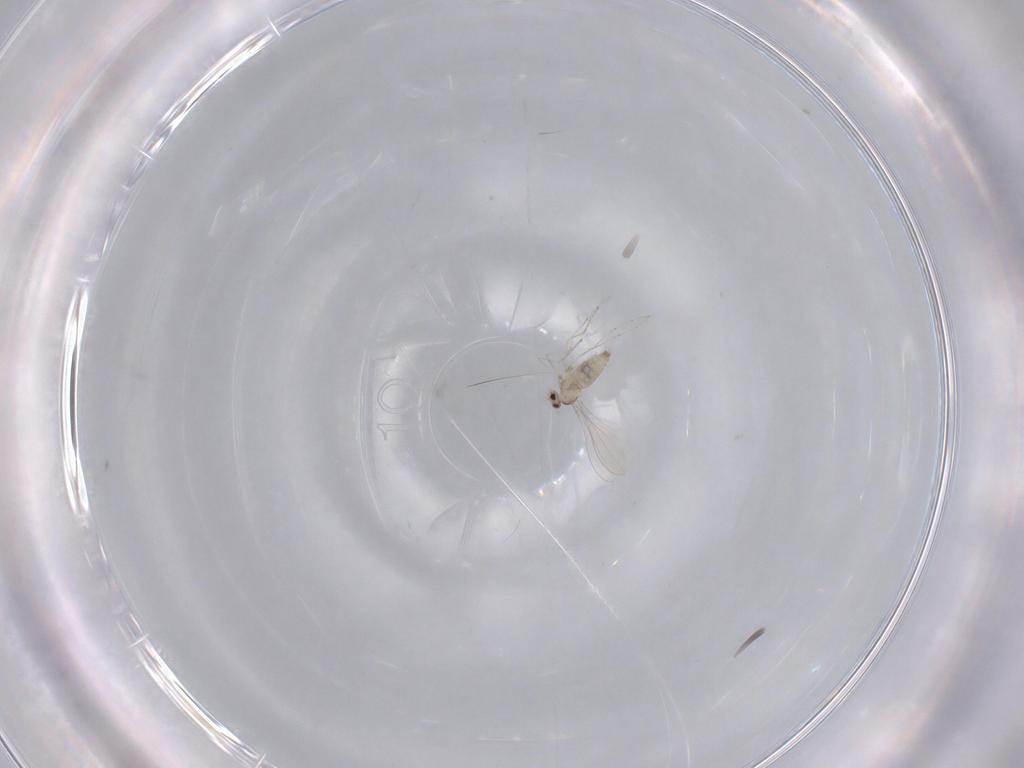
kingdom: Animalia
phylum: Arthropoda
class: Insecta
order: Diptera
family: Cecidomyiidae
